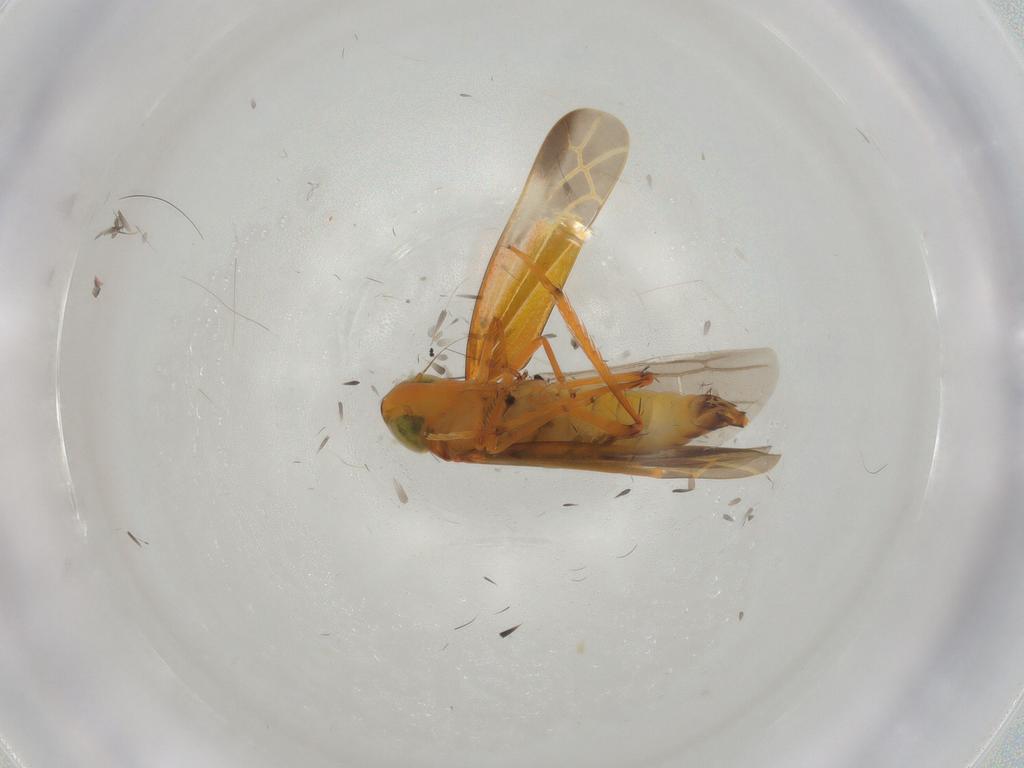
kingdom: Animalia
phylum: Arthropoda
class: Insecta
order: Hemiptera
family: Cicadellidae
